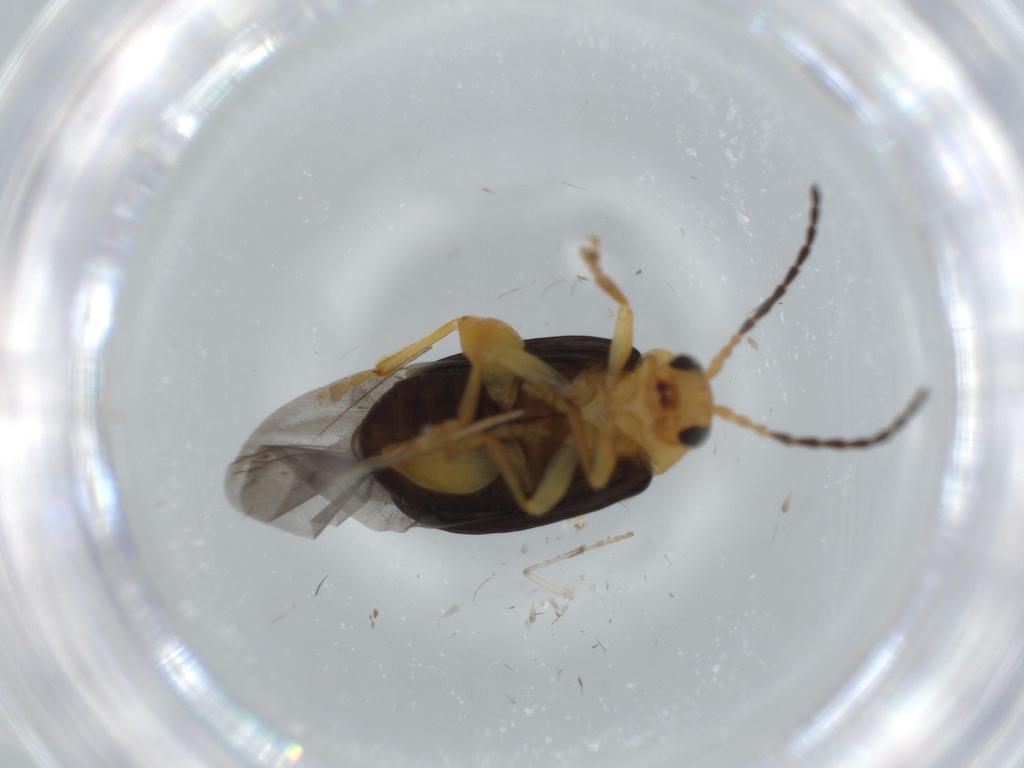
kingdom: Animalia
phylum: Arthropoda
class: Insecta
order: Coleoptera
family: Chrysomelidae
